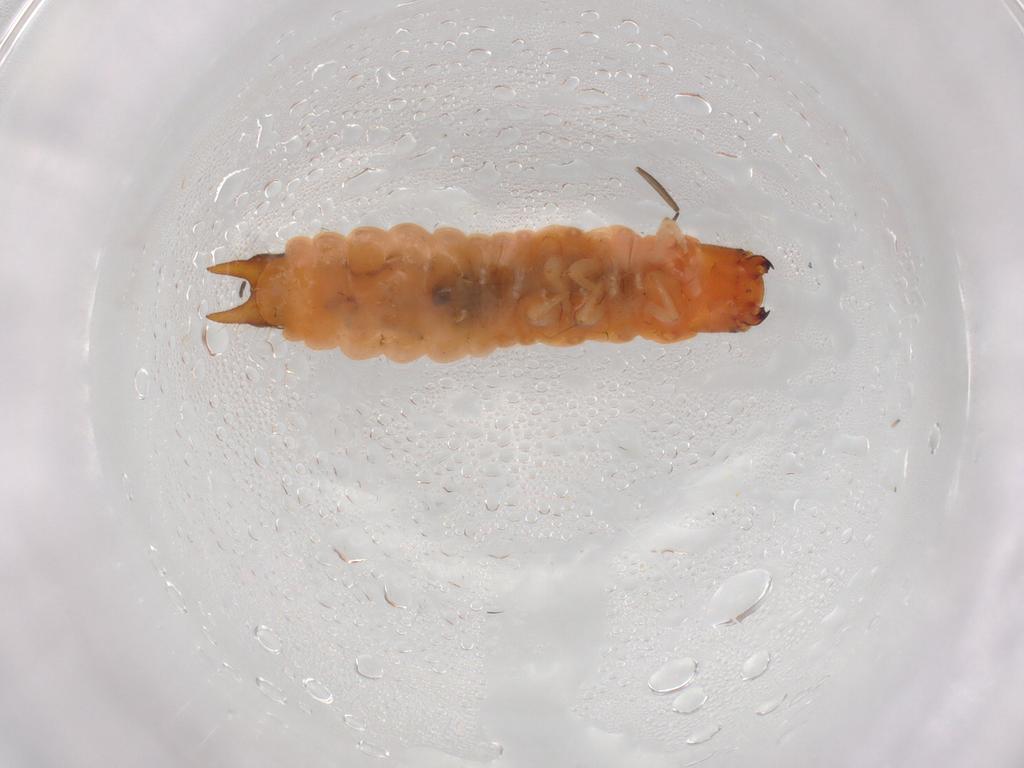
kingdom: Animalia
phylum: Arthropoda
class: Insecta
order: Coleoptera
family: Melyridae
